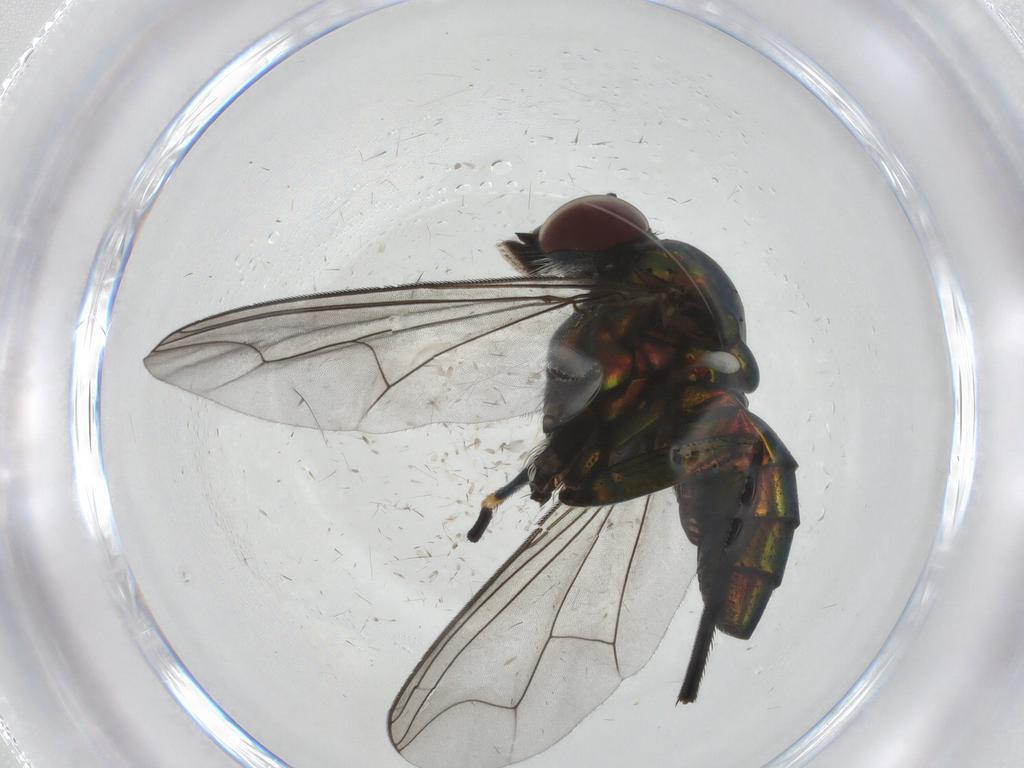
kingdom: Animalia
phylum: Arthropoda
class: Insecta
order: Diptera
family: Dolichopodidae
